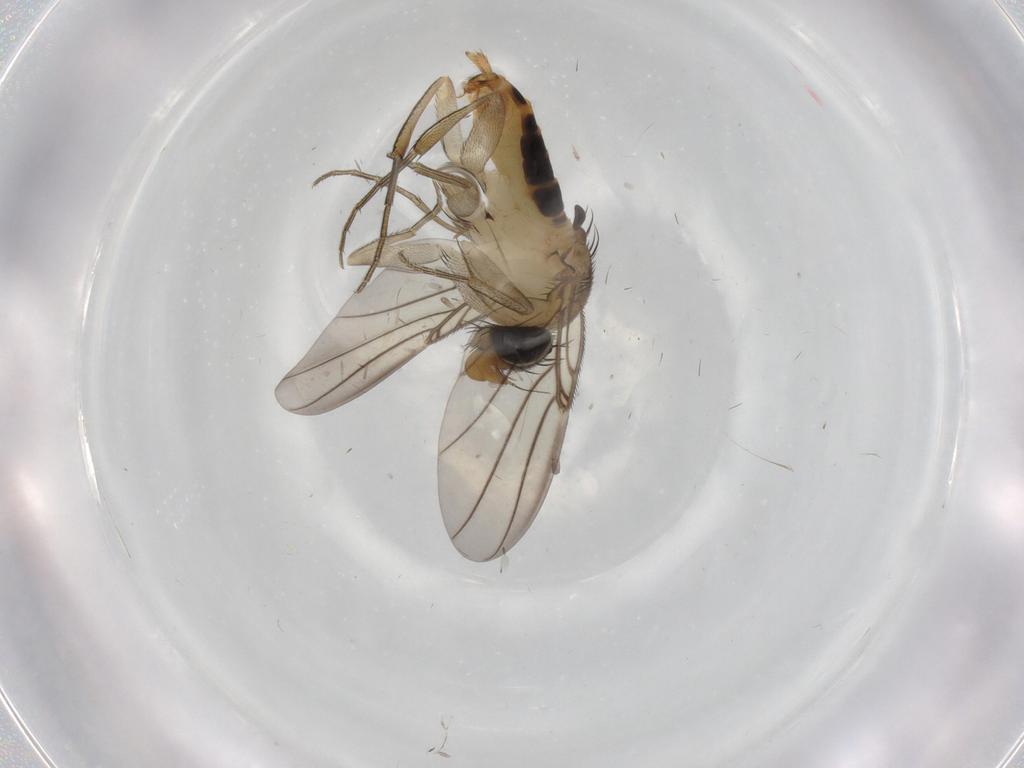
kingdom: Animalia
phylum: Arthropoda
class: Insecta
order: Diptera
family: Phoridae
